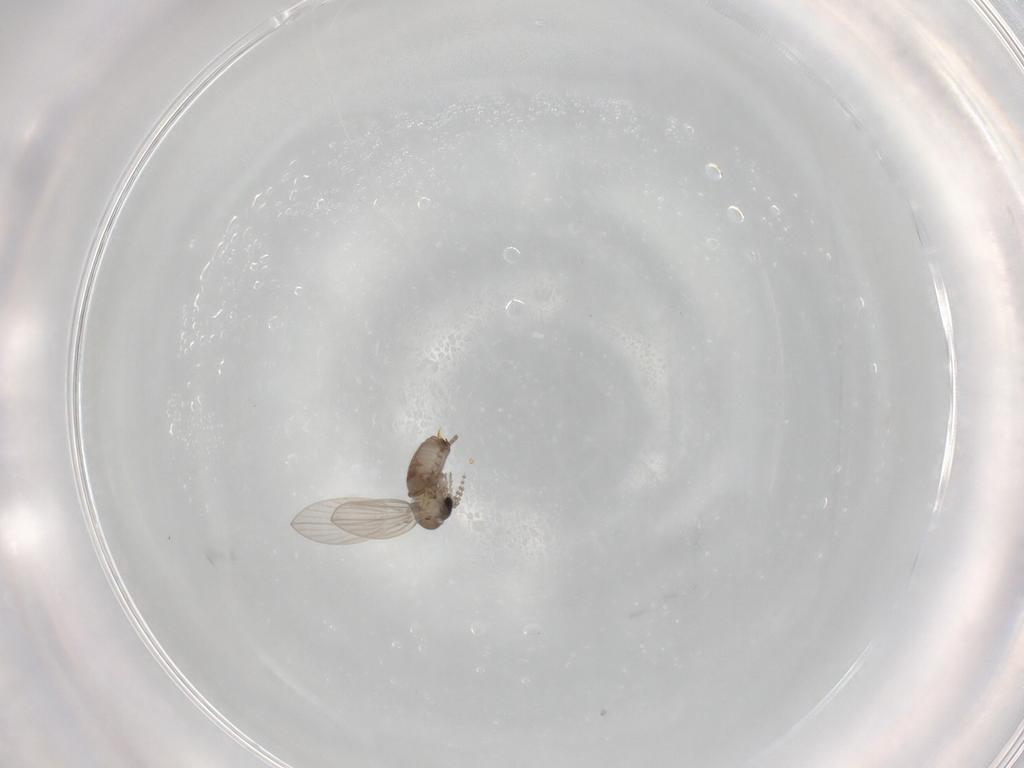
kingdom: Animalia
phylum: Arthropoda
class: Insecta
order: Diptera
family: Psychodidae
